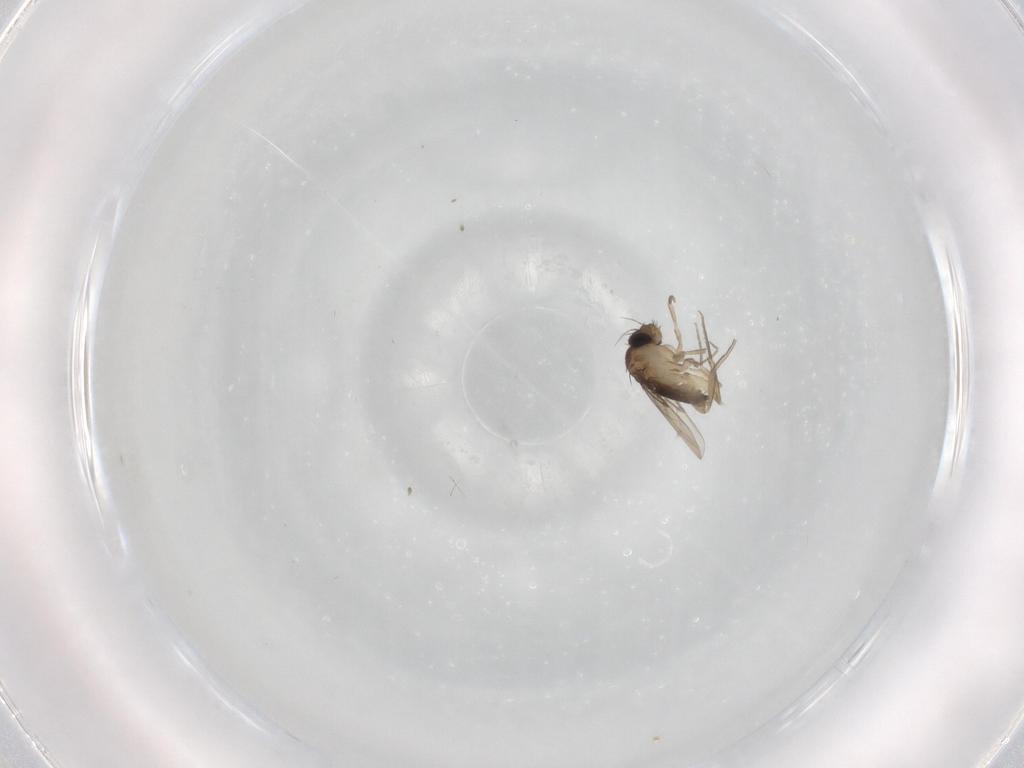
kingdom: Animalia
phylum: Arthropoda
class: Insecta
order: Diptera
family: Phoridae
